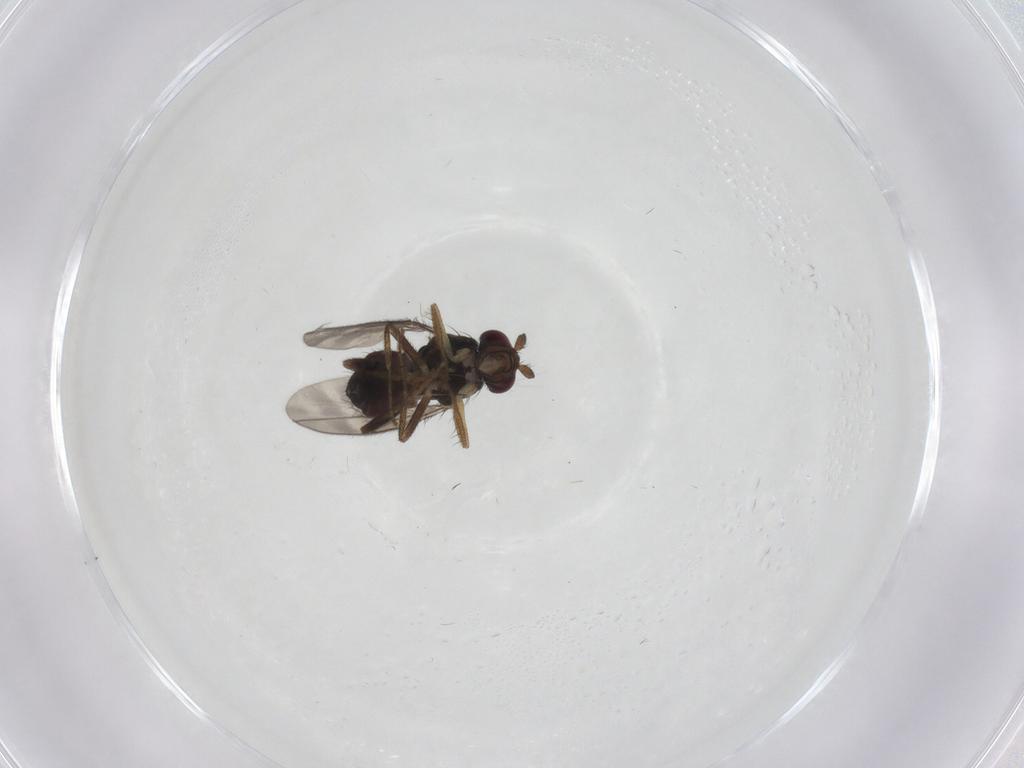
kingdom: Animalia
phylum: Arthropoda
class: Insecta
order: Diptera
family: Sphaeroceridae
